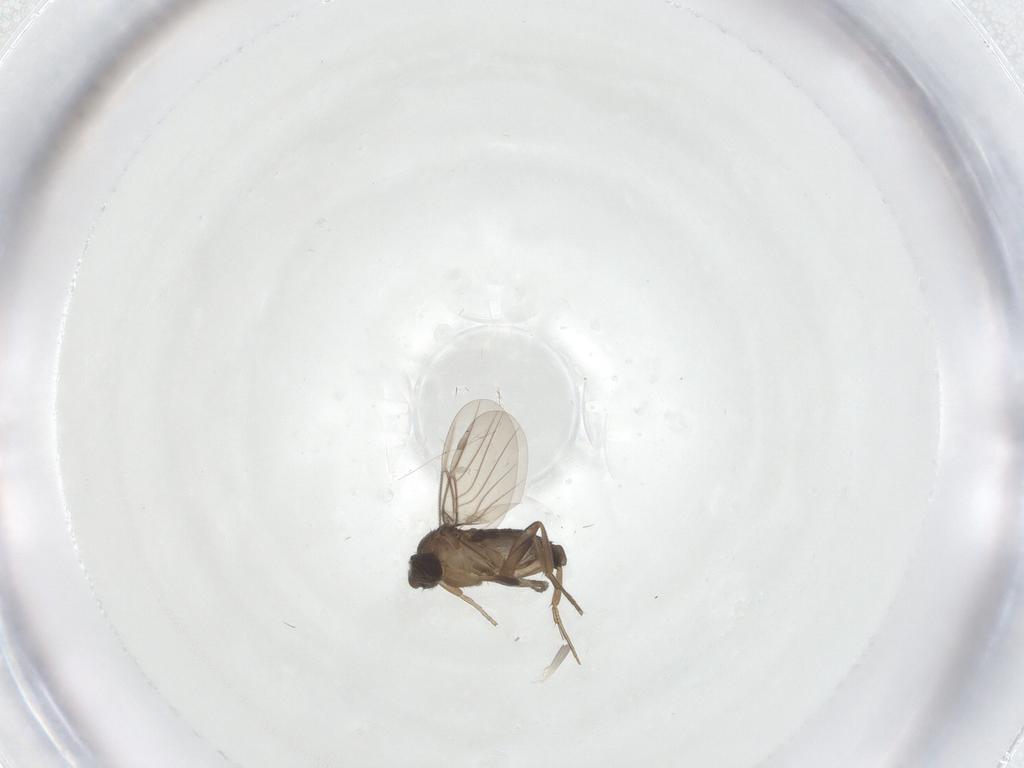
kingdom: Animalia
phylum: Arthropoda
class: Insecta
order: Diptera
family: Phoridae
